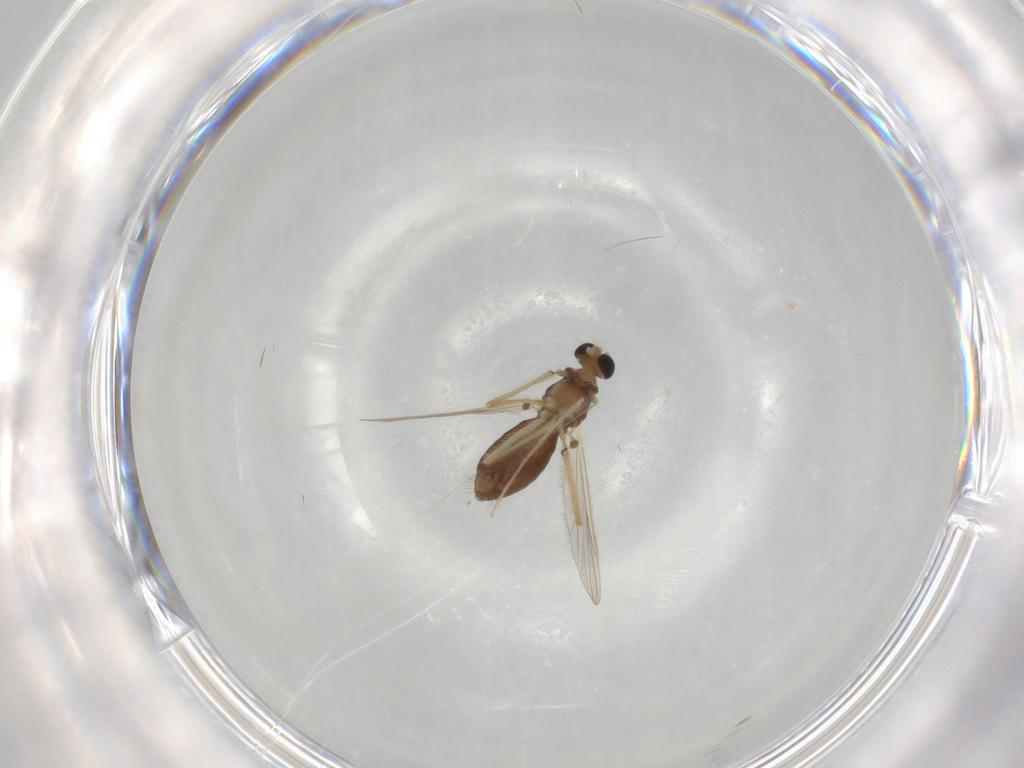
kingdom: Animalia
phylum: Arthropoda
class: Insecta
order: Diptera
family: Chironomidae
